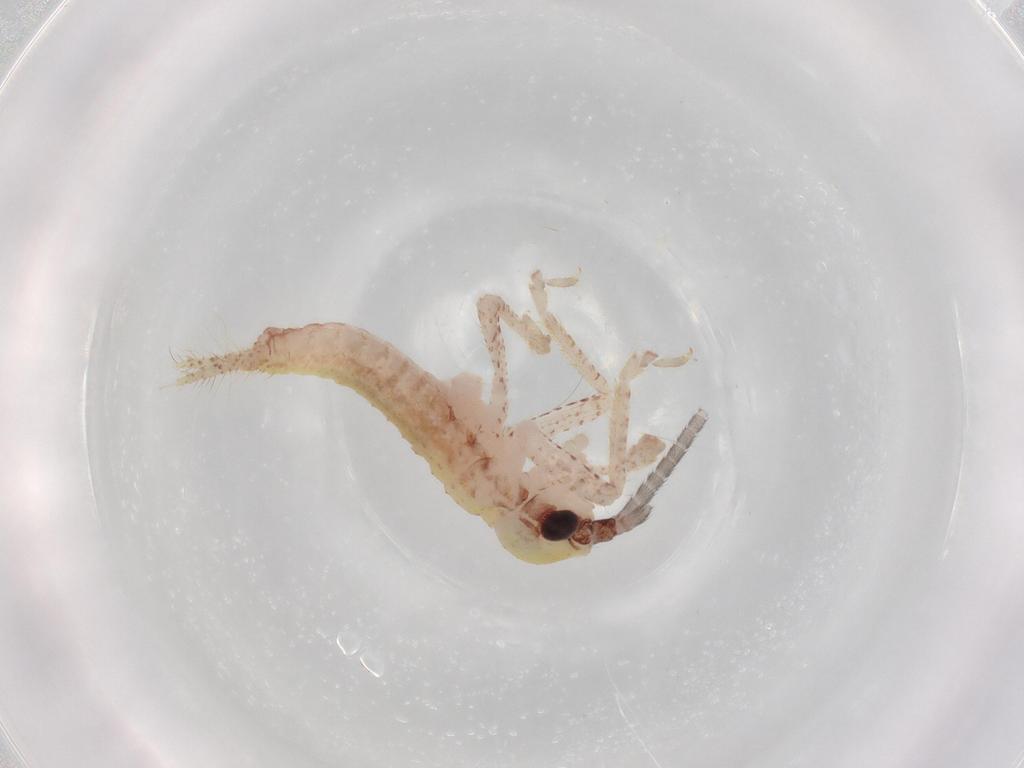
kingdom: Animalia
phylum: Arthropoda
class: Insecta
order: Orthoptera
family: Gryllidae
